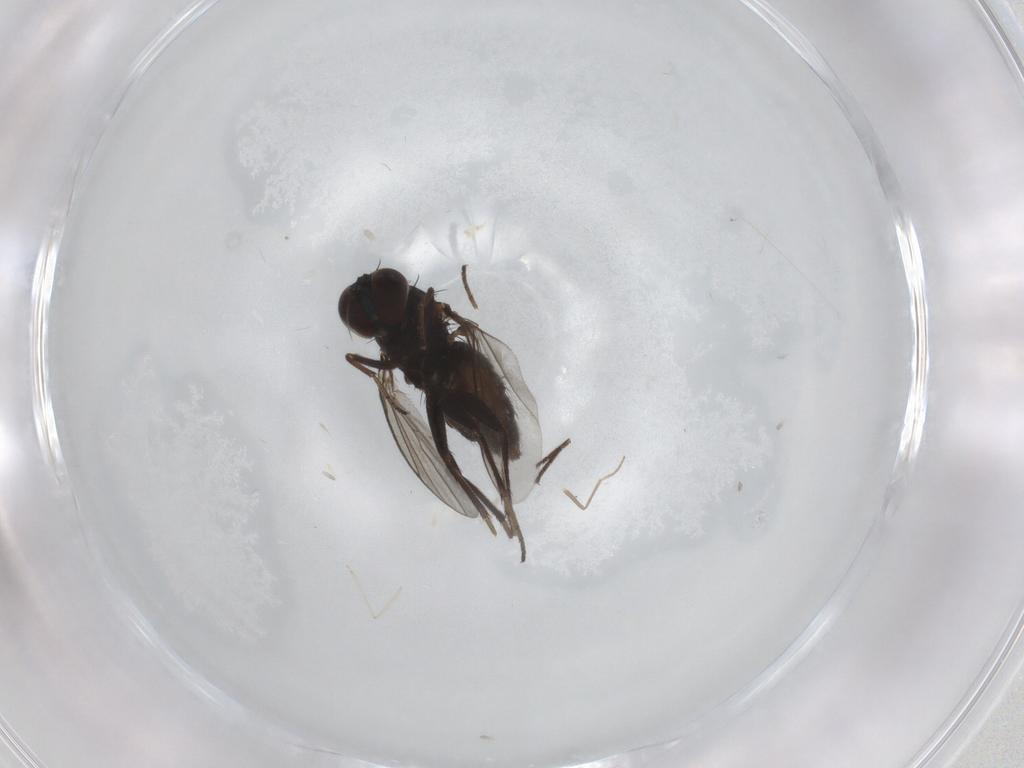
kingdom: Animalia
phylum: Arthropoda
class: Insecta
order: Diptera
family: Dolichopodidae
